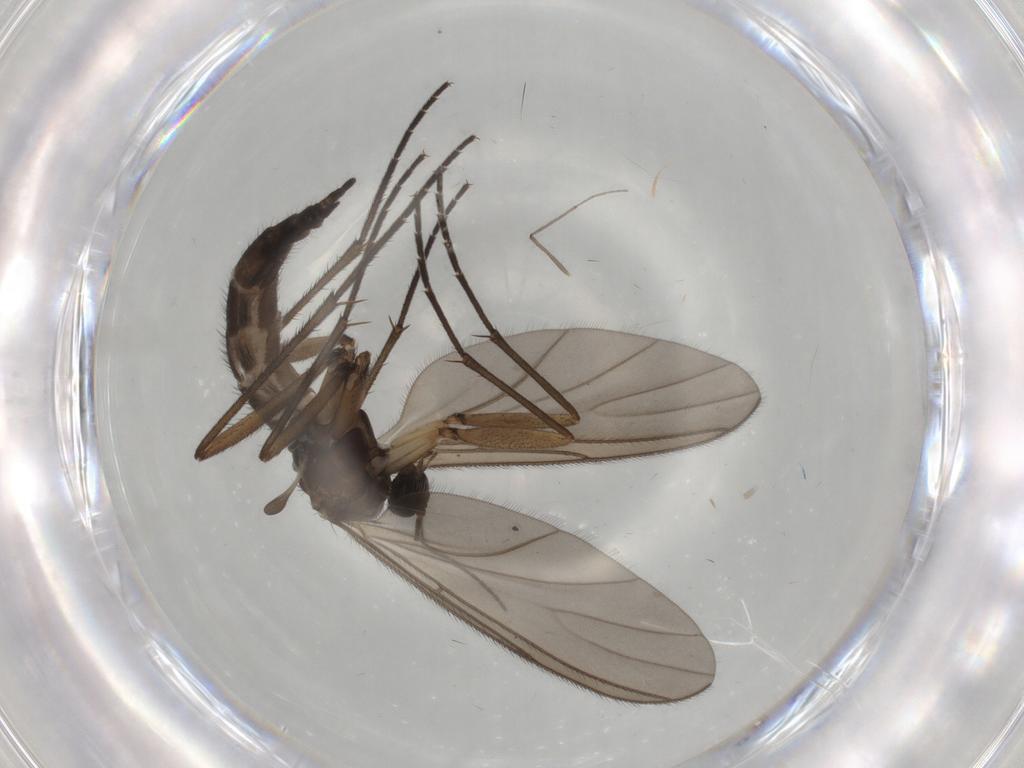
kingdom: Animalia
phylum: Arthropoda
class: Insecta
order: Diptera
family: Sciaridae
